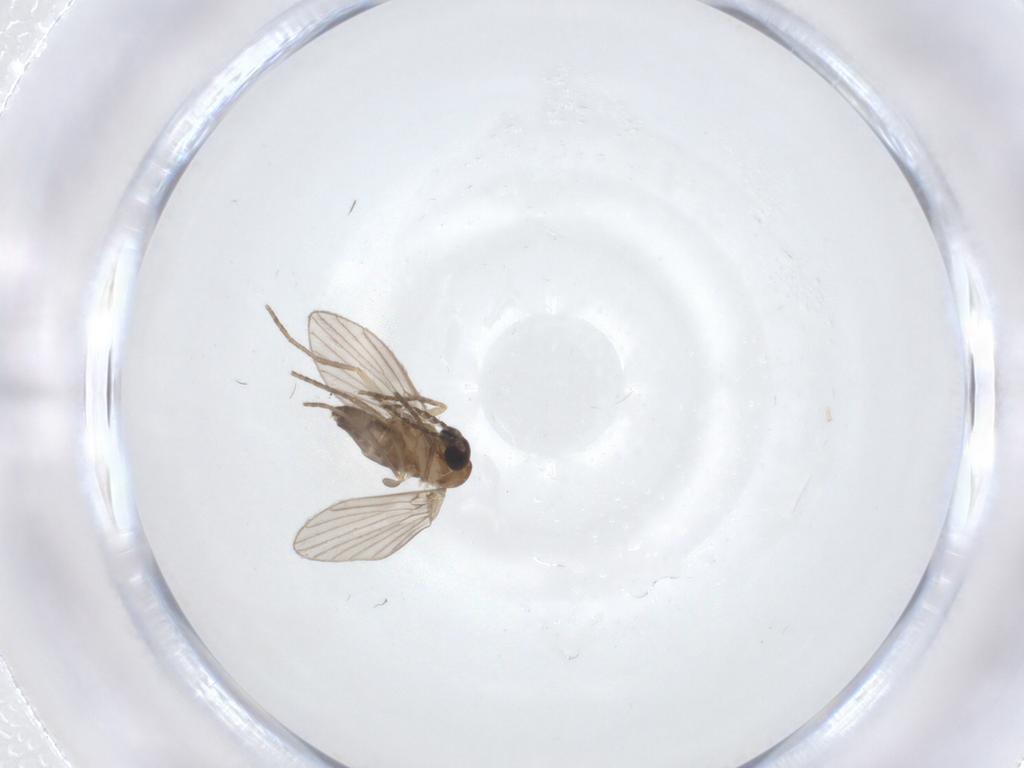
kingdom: Animalia
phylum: Arthropoda
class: Insecta
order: Diptera
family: Chironomidae
